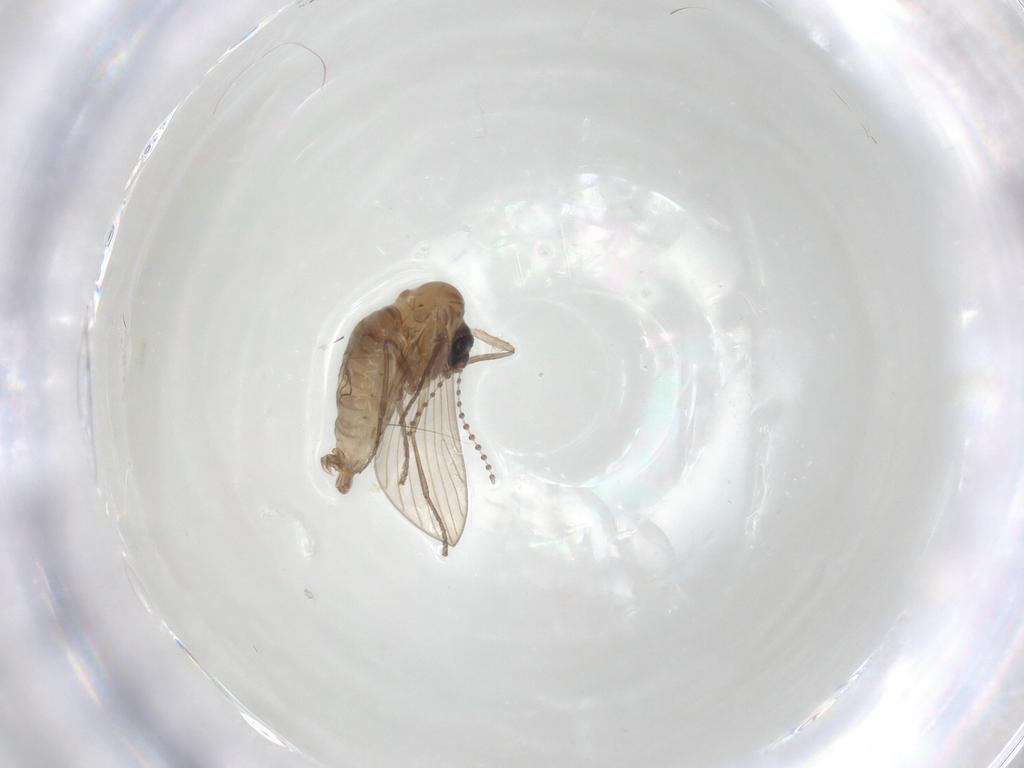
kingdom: Animalia
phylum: Arthropoda
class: Insecta
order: Diptera
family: Psychodidae
